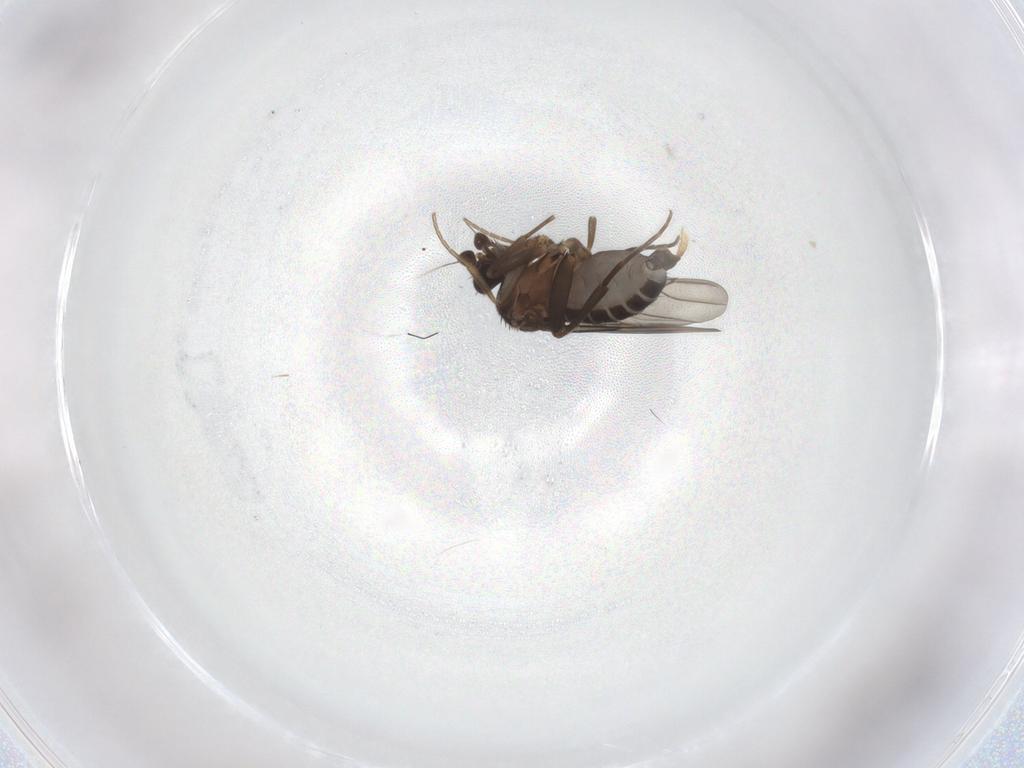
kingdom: Animalia
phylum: Arthropoda
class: Insecta
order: Diptera
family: Phoridae
